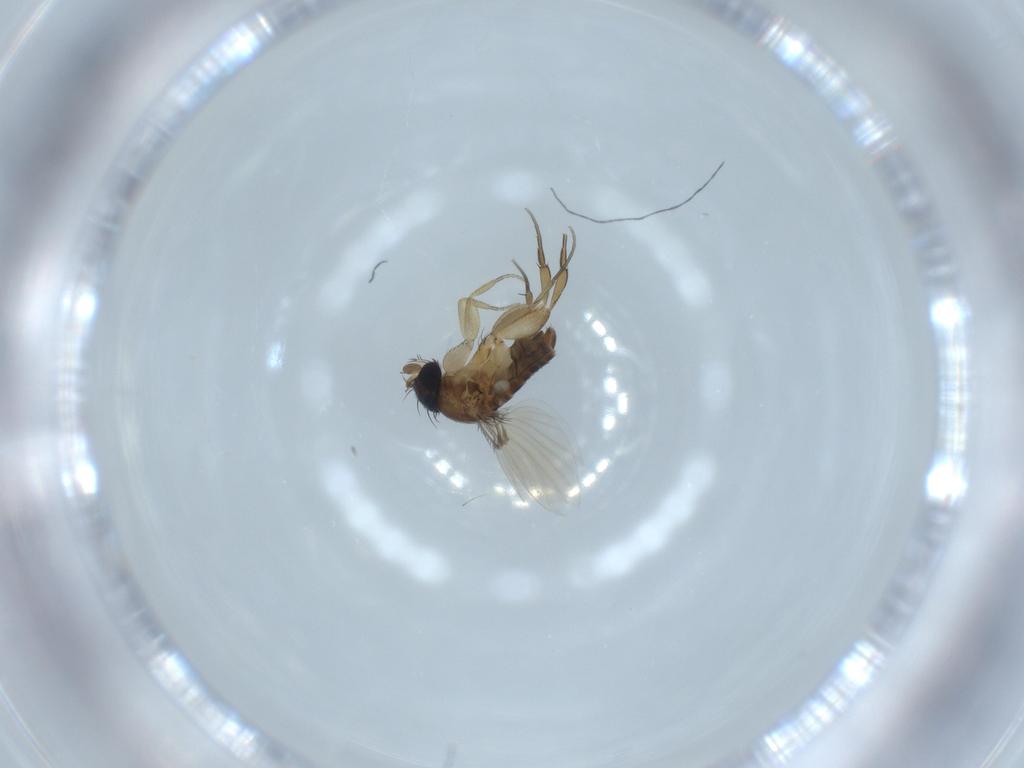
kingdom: Animalia
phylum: Arthropoda
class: Insecta
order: Diptera
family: Phoridae
